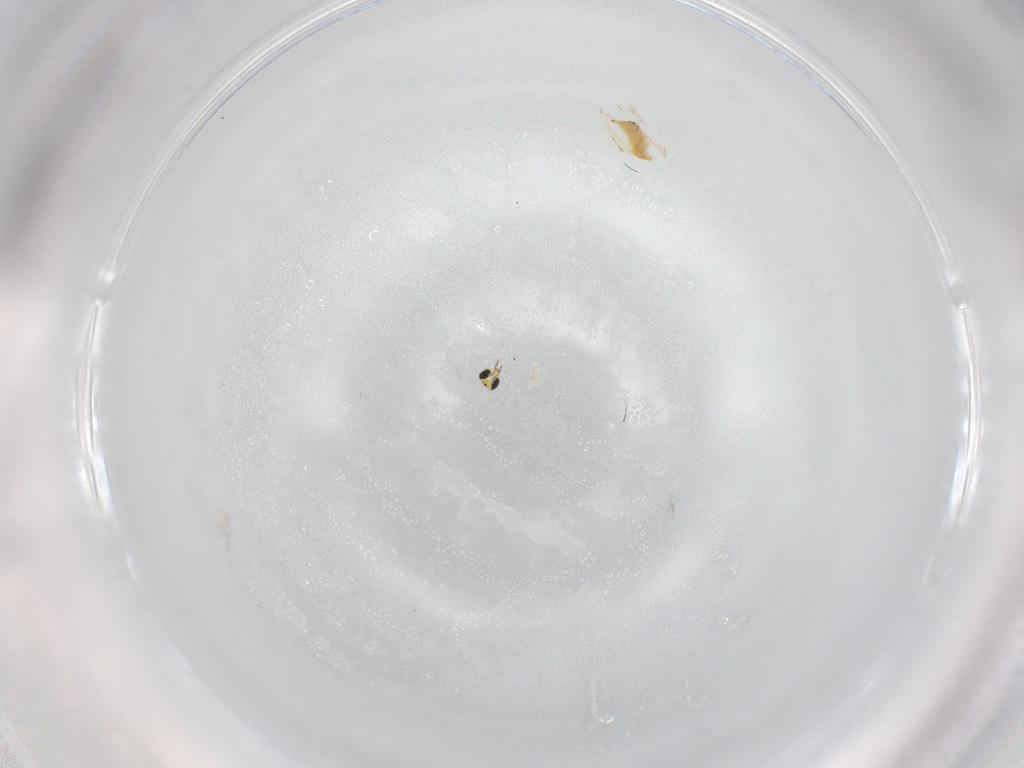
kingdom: Animalia
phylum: Arthropoda
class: Insecta
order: Hymenoptera
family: Trichogrammatidae
